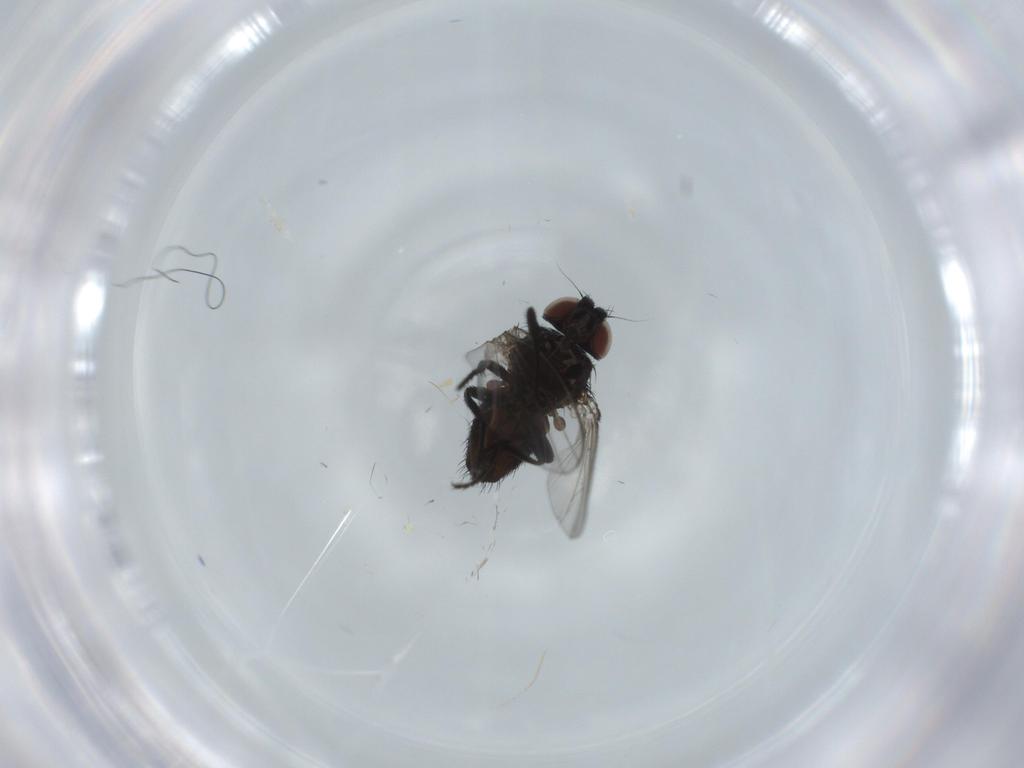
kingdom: Animalia
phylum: Arthropoda
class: Insecta
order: Diptera
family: Milichiidae
